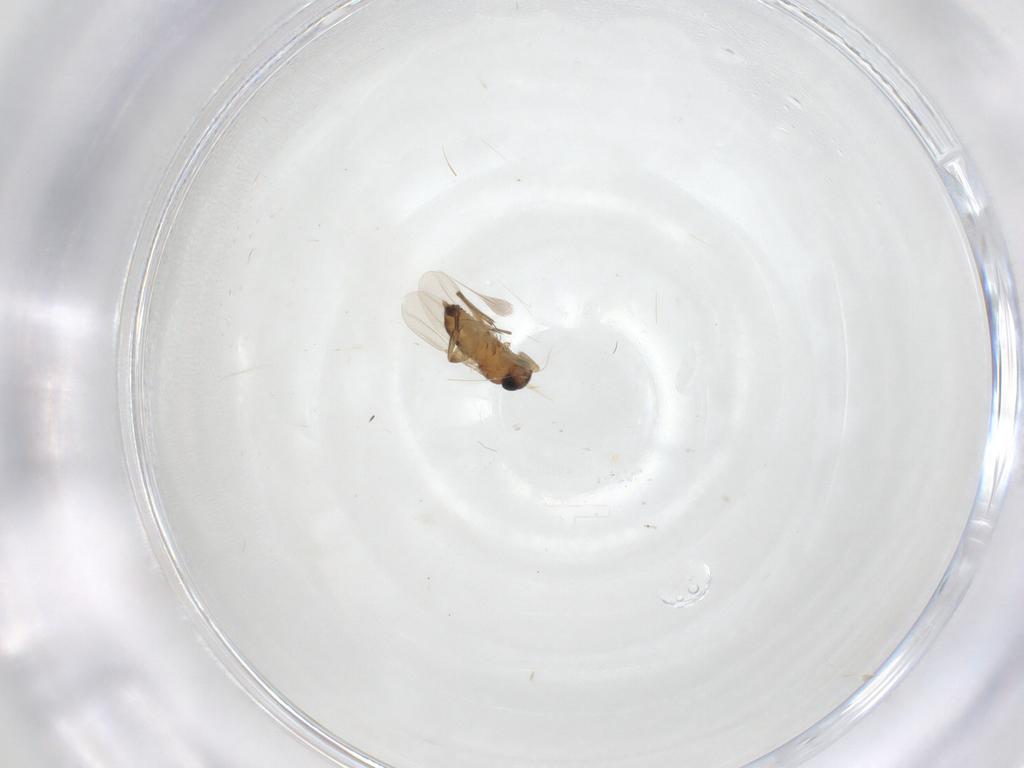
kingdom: Animalia
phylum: Arthropoda
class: Insecta
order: Diptera
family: Phoridae
